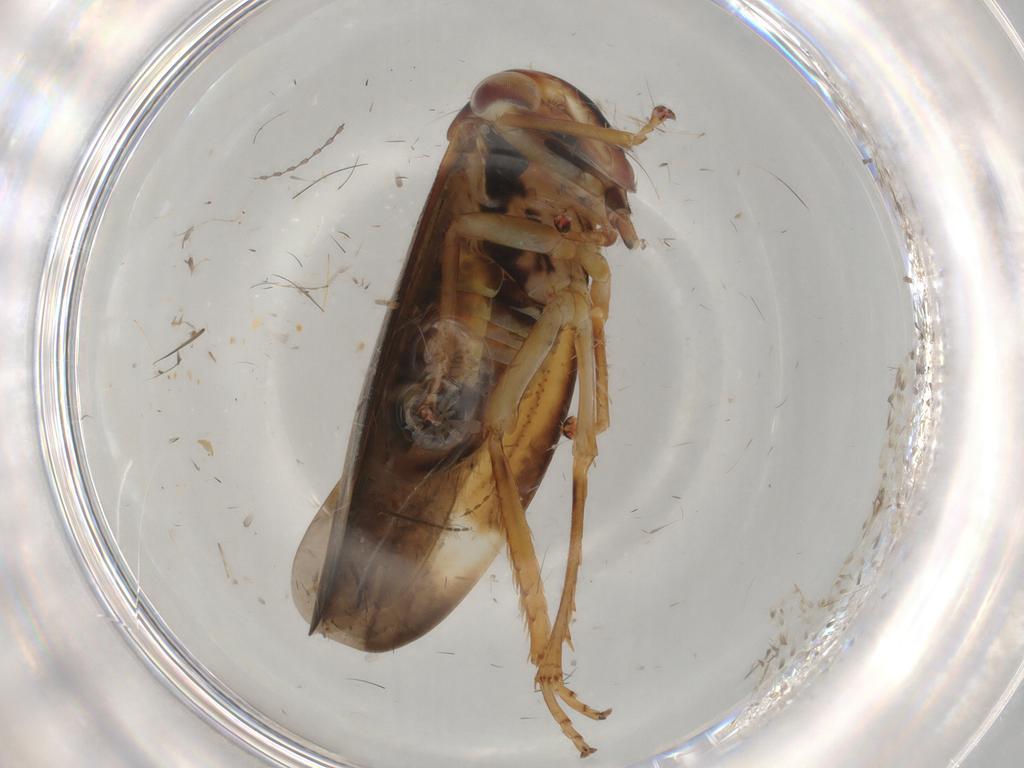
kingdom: Animalia
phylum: Arthropoda
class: Insecta
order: Hemiptera
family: Cicadellidae
